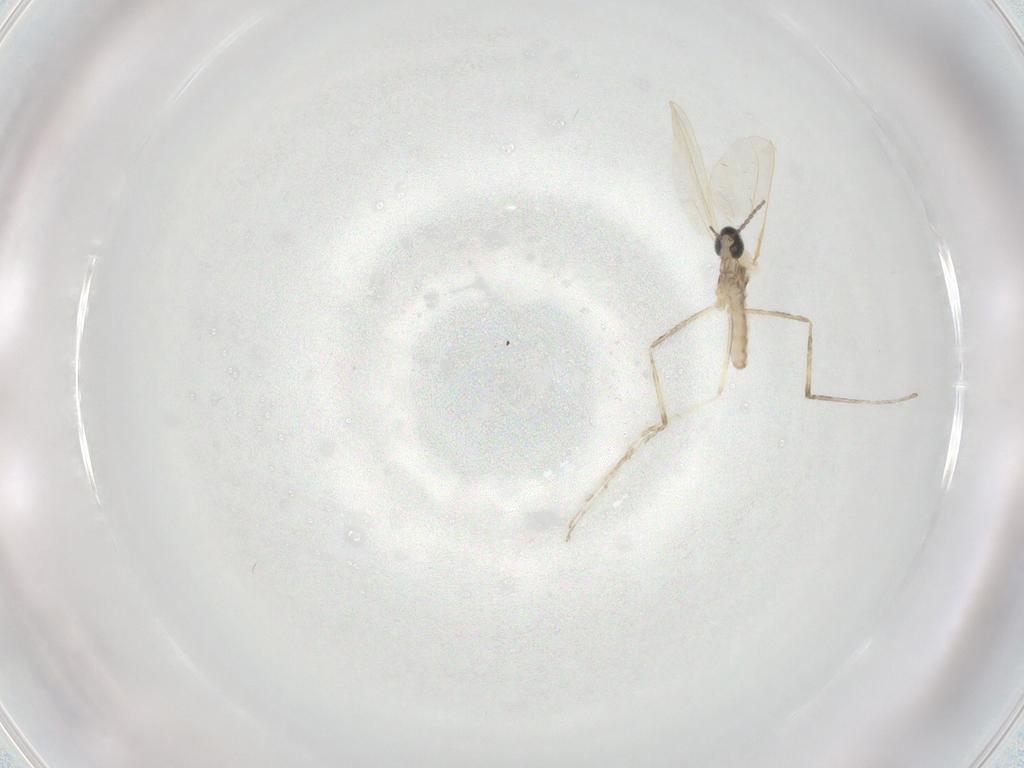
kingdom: Animalia
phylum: Arthropoda
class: Insecta
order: Diptera
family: Cecidomyiidae
